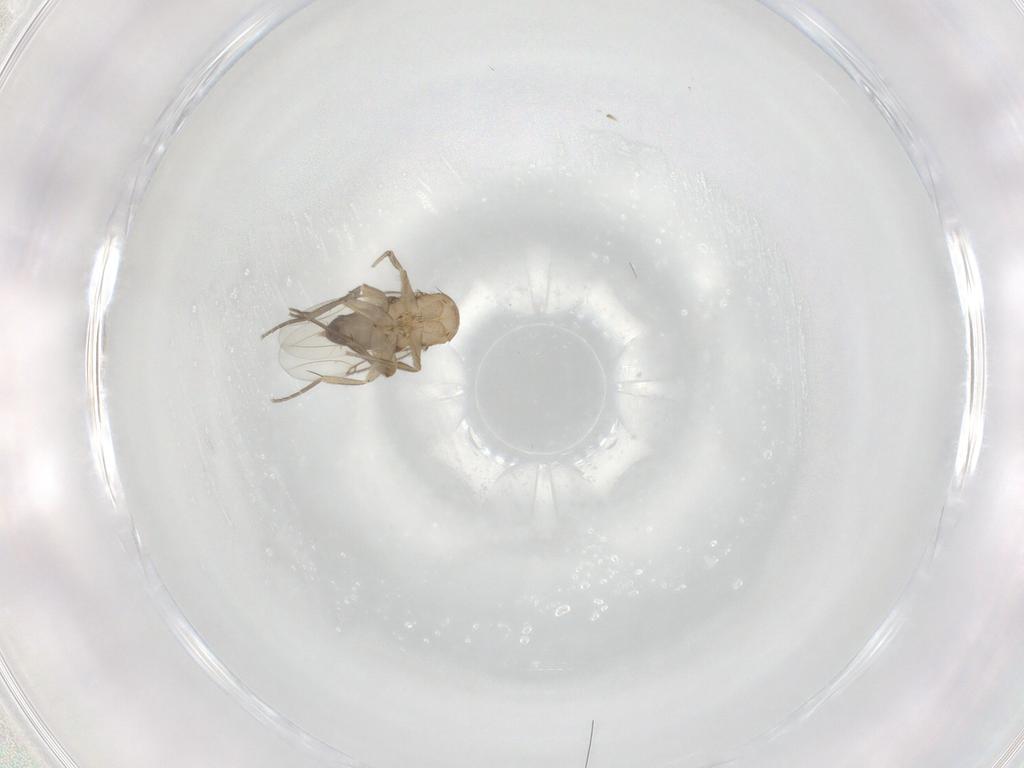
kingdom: Animalia
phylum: Arthropoda
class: Insecta
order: Diptera
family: Phoridae
